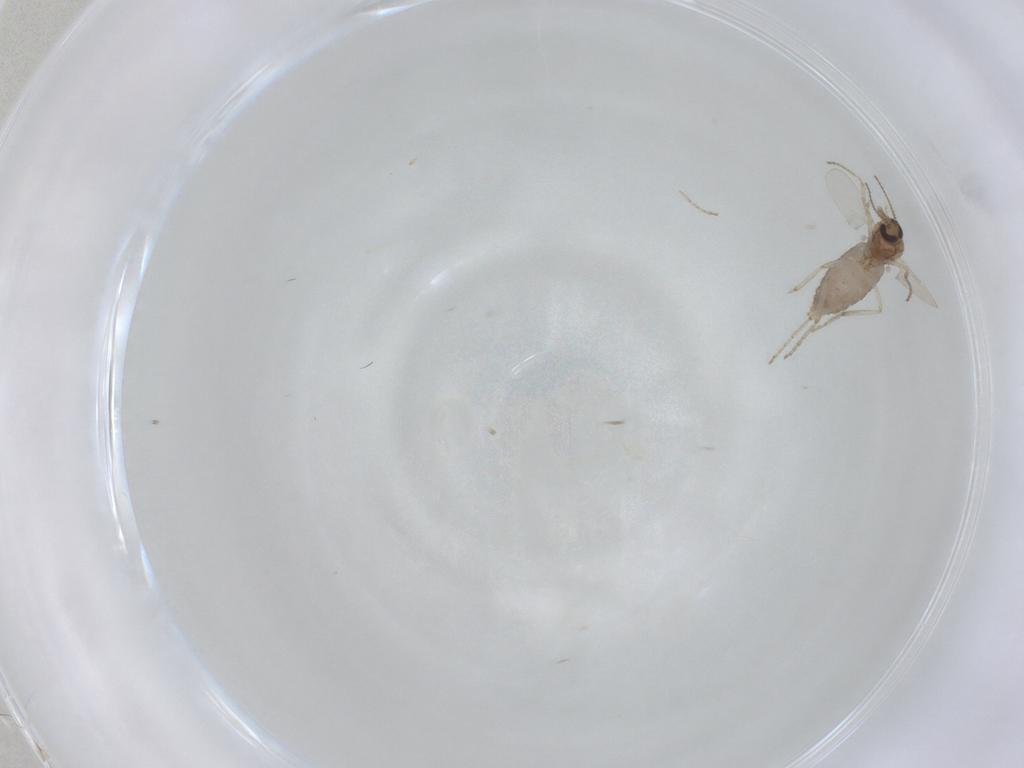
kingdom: Animalia
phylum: Arthropoda
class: Insecta
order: Diptera
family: Ceratopogonidae
